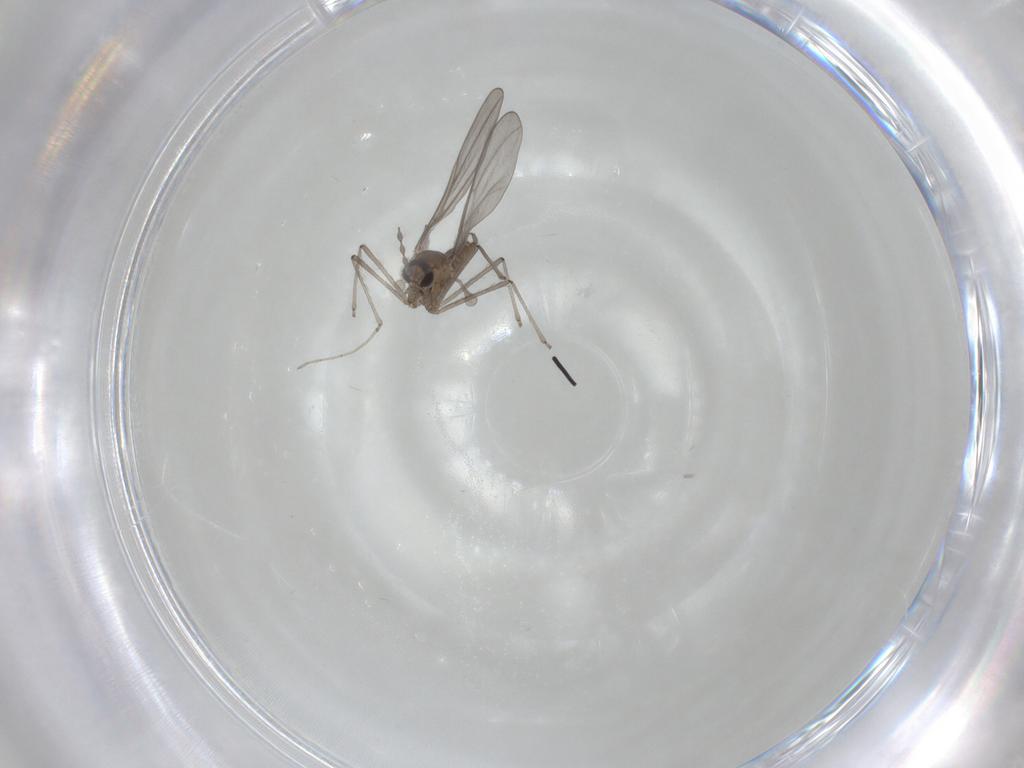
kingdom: Animalia
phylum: Arthropoda
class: Insecta
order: Diptera
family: Cecidomyiidae
